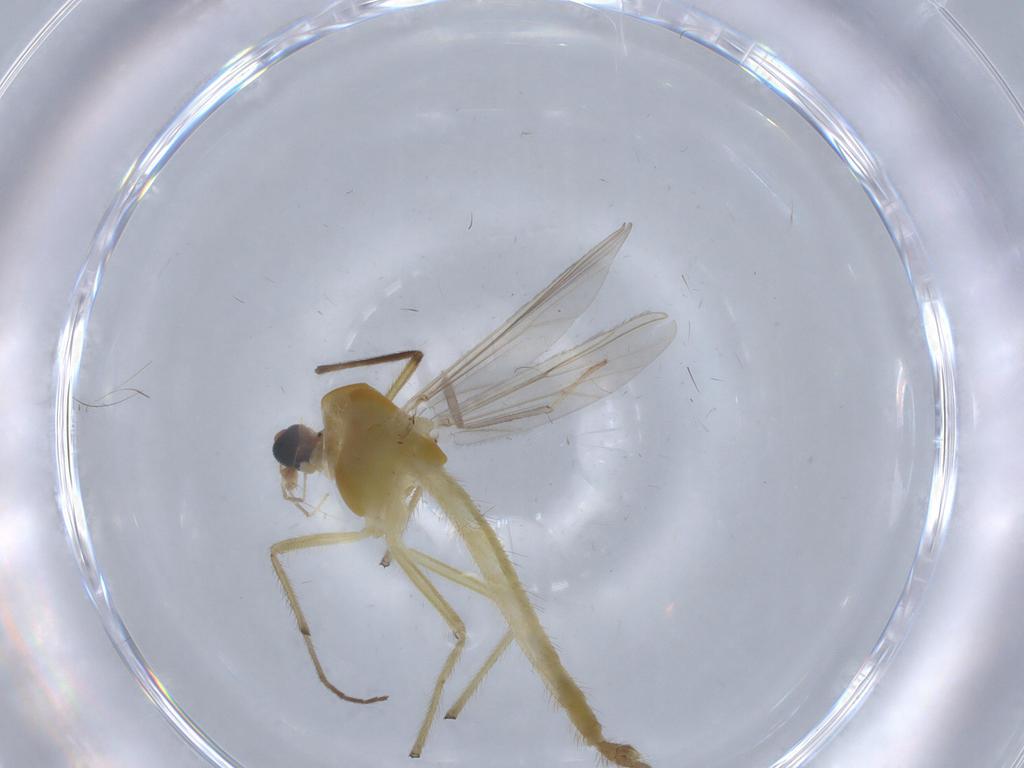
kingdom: Animalia
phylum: Arthropoda
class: Insecta
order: Diptera
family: Chironomidae
